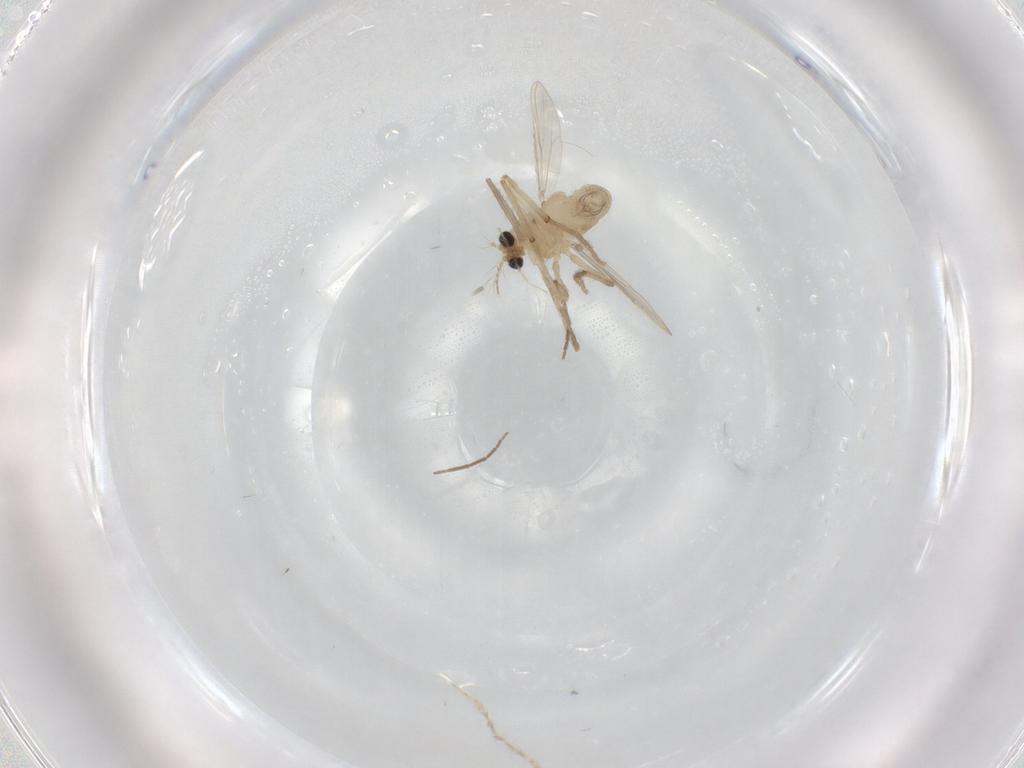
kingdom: Animalia
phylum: Arthropoda
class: Insecta
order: Diptera
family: Chironomidae
